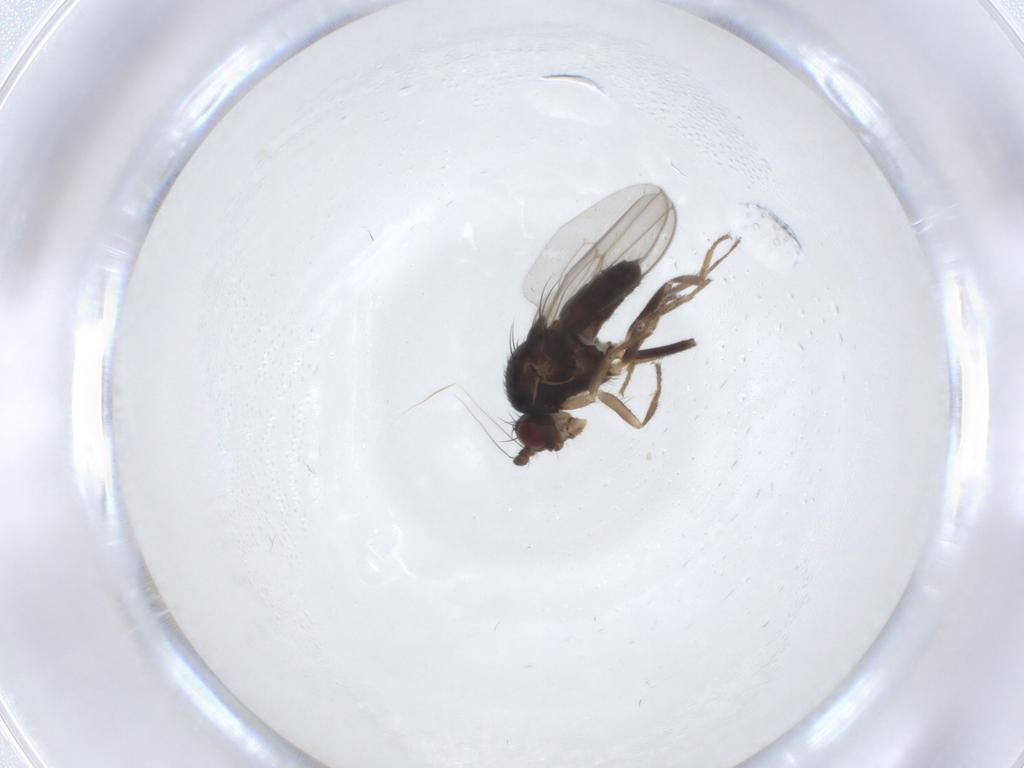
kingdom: Animalia
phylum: Arthropoda
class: Insecta
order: Diptera
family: Sphaeroceridae
